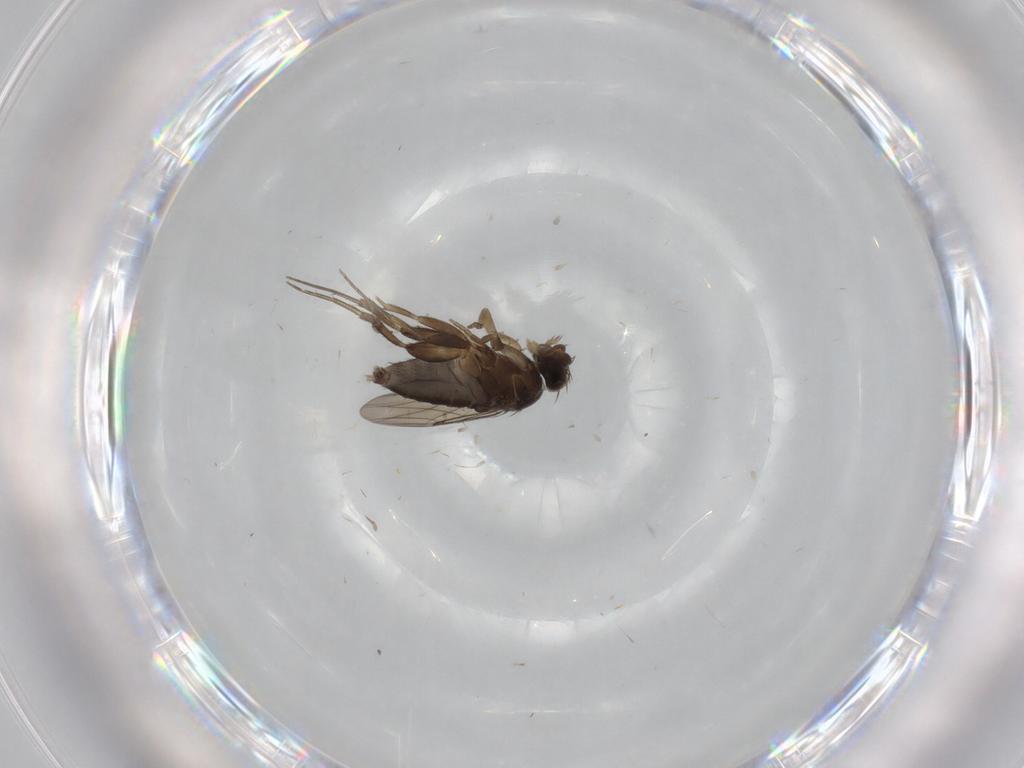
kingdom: Animalia
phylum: Arthropoda
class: Insecta
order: Diptera
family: Phoridae
